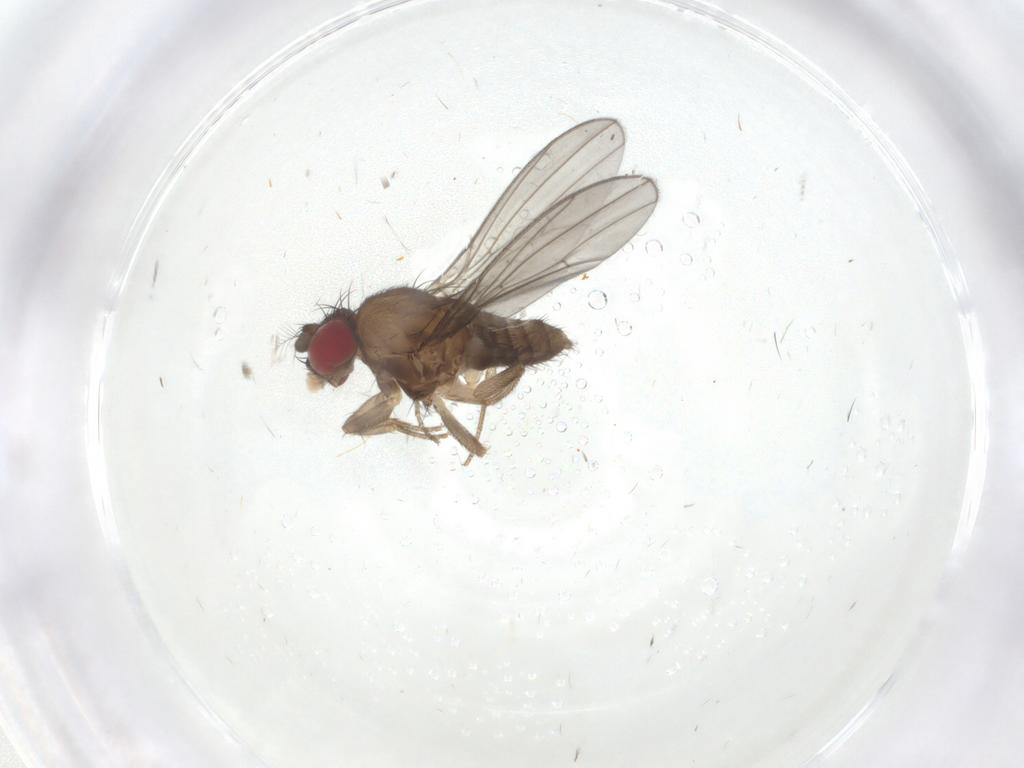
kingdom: Animalia
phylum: Arthropoda
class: Insecta
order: Diptera
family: Drosophilidae
